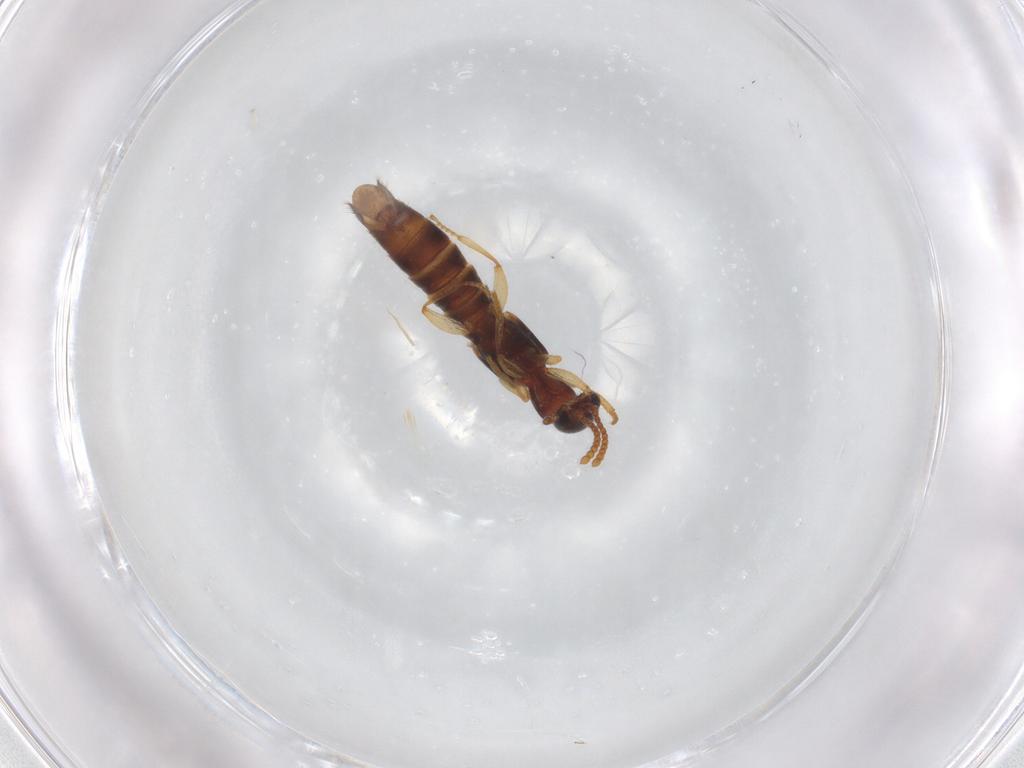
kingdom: Animalia
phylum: Arthropoda
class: Insecta
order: Coleoptera
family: Staphylinidae
